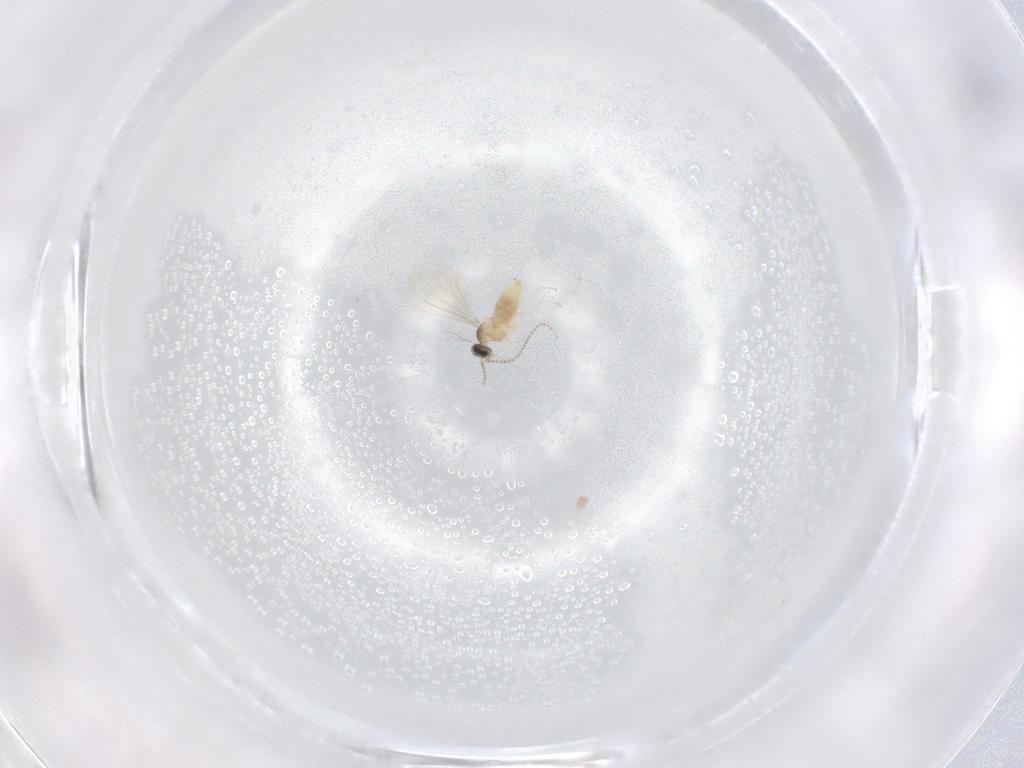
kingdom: Animalia
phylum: Arthropoda
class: Insecta
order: Diptera
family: Cecidomyiidae
